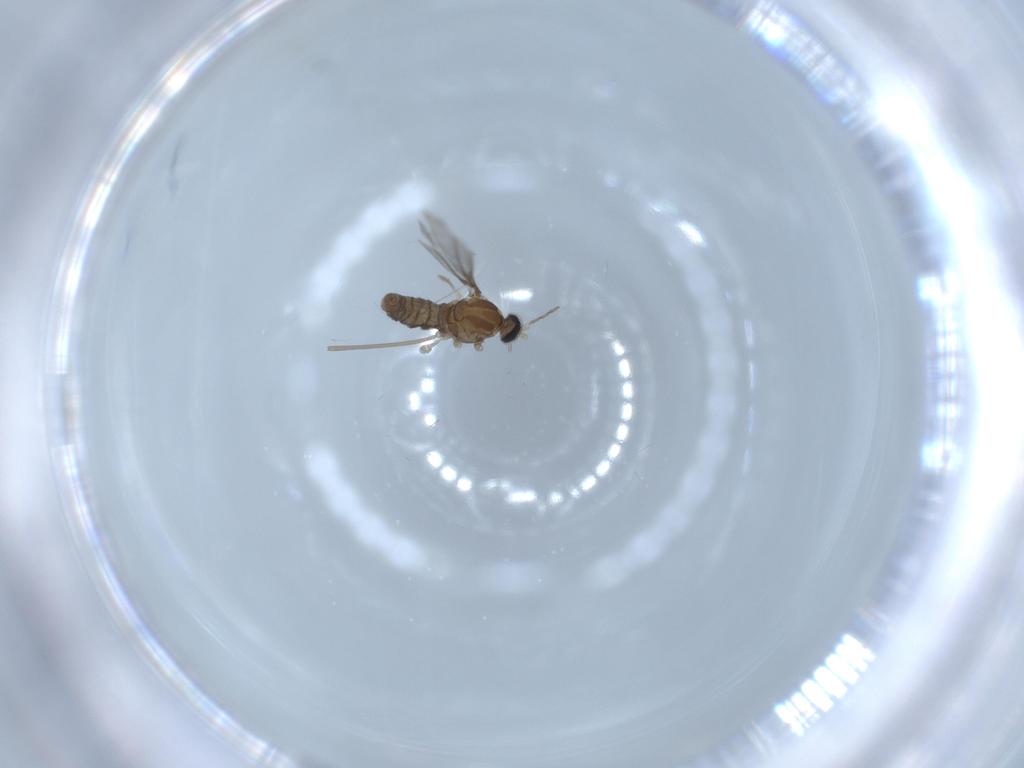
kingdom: Animalia
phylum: Arthropoda
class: Insecta
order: Diptera
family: Cecidomyiidae
